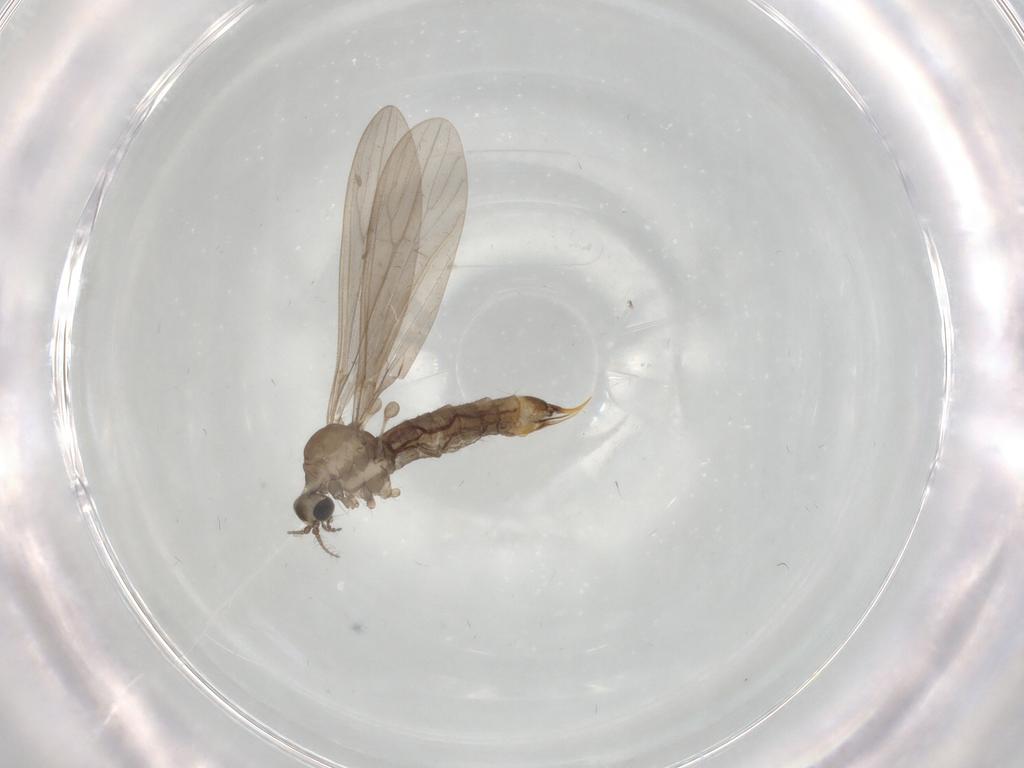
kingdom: Animalia
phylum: Arthropoda
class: Insecta
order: Diptera
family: Limoniidae
